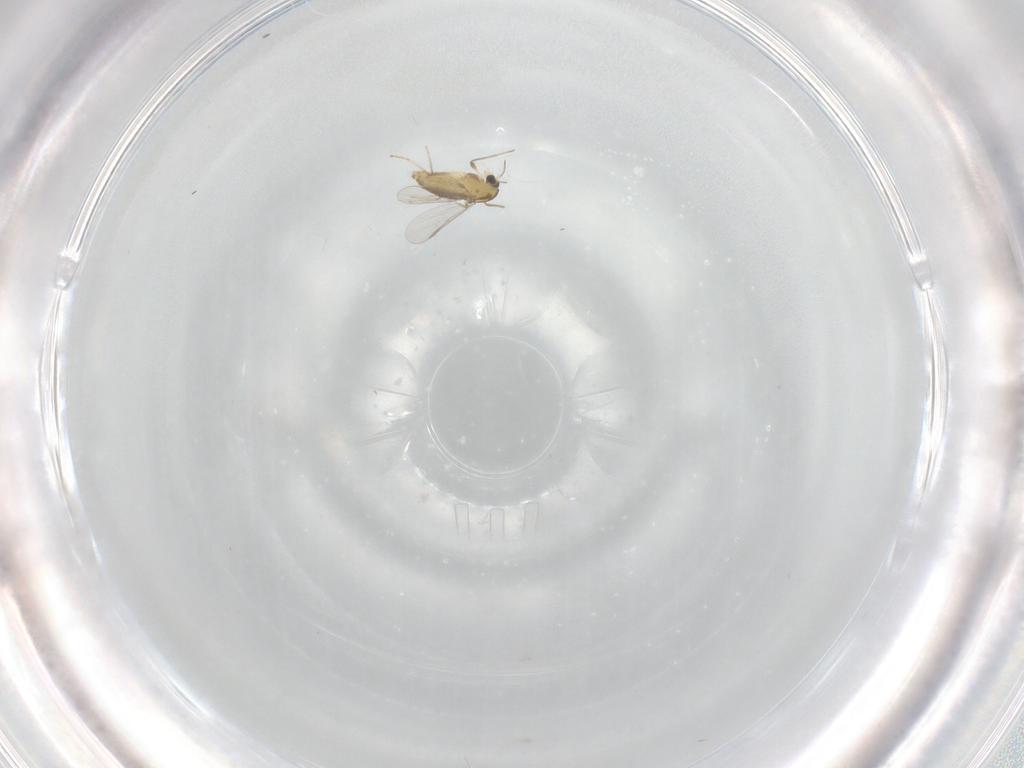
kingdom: Animalia
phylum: Arthropoda
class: Insecta
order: Diptera
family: Chironomidae
